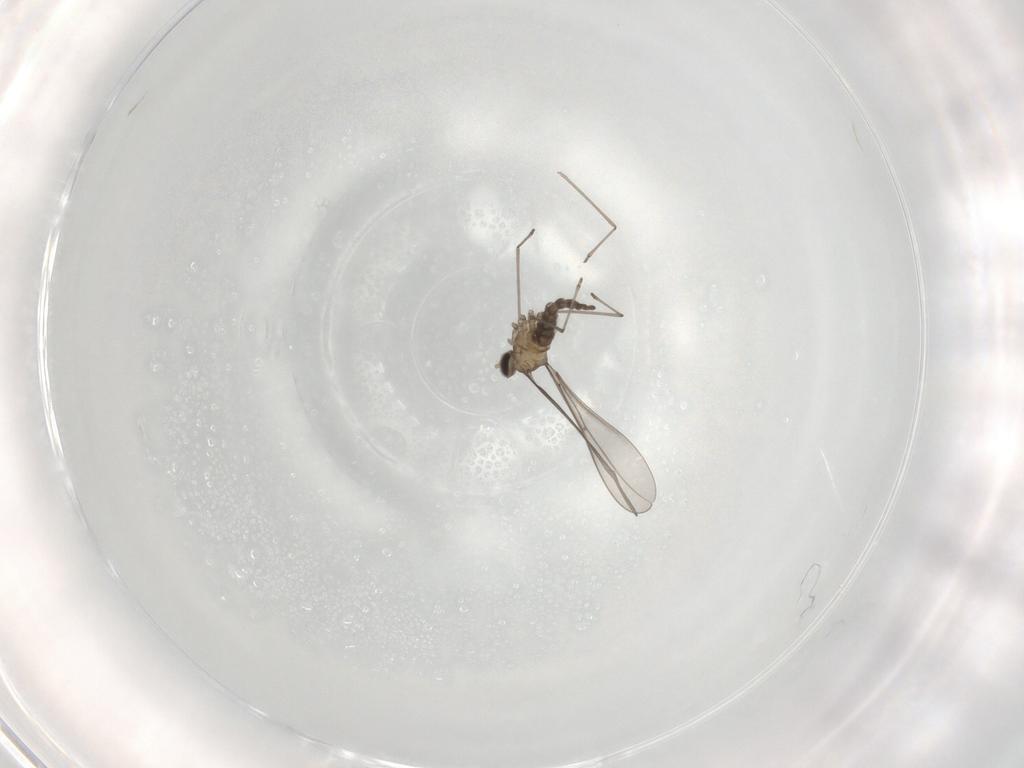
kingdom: Animalia
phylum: Arthropoda
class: Insecta
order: Diptera
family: Cecidomyiidae
